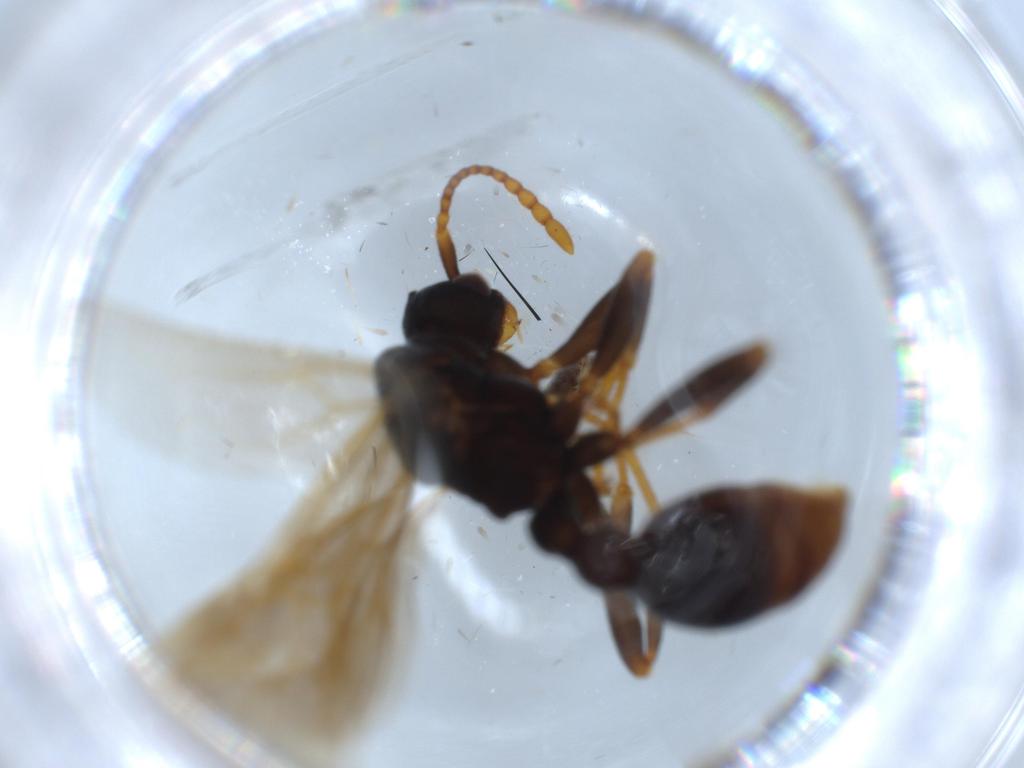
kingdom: Animalia
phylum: Arthropoda
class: Insecta
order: Hymenoptera
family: Formicidae
